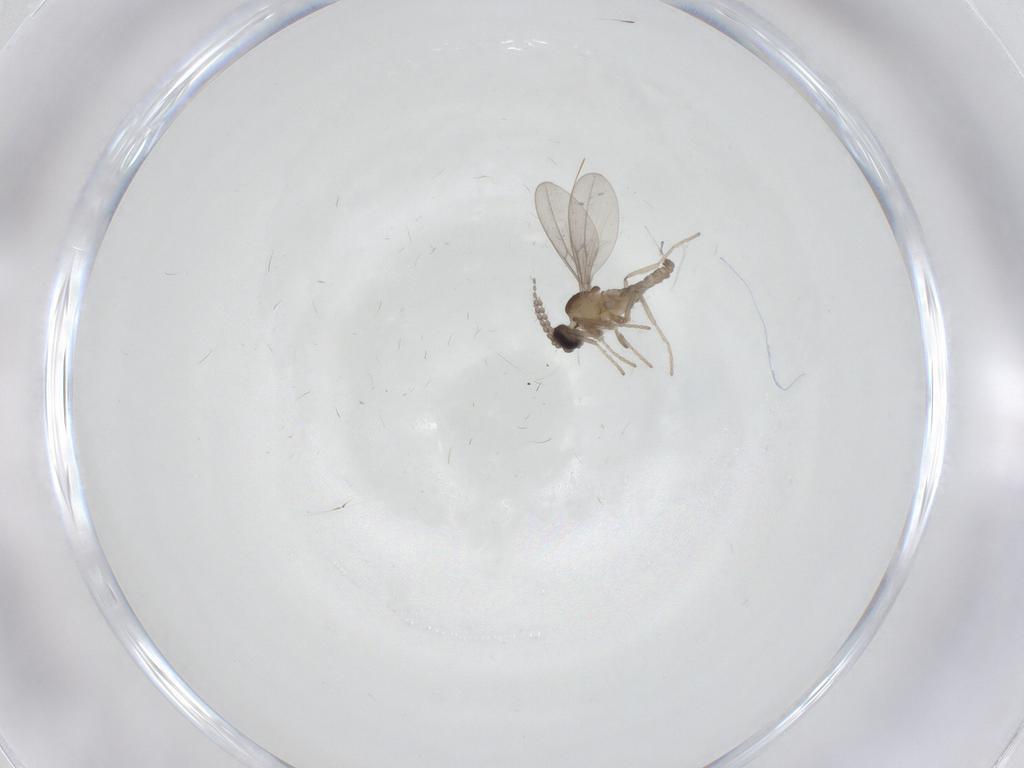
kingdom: Animalia
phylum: Arthropoda
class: Insecta
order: Diptera
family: Cecidomyiidae
